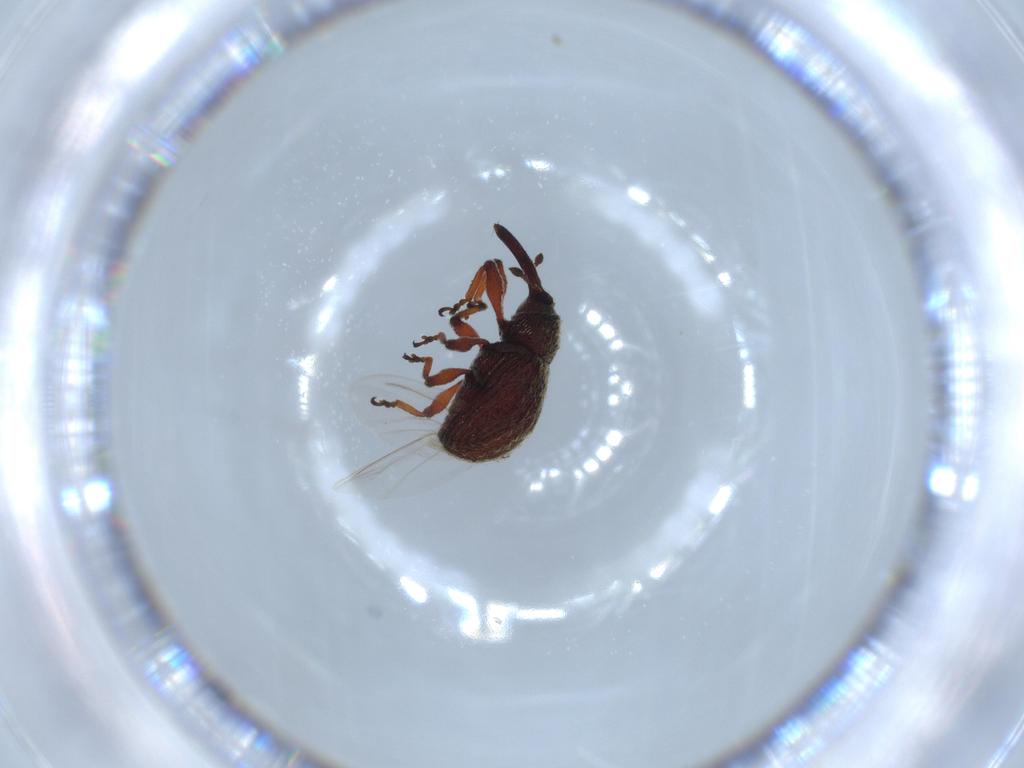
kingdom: Animalia
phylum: Arthropoda
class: Insecta
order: Coleoptera
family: Curculionidae
